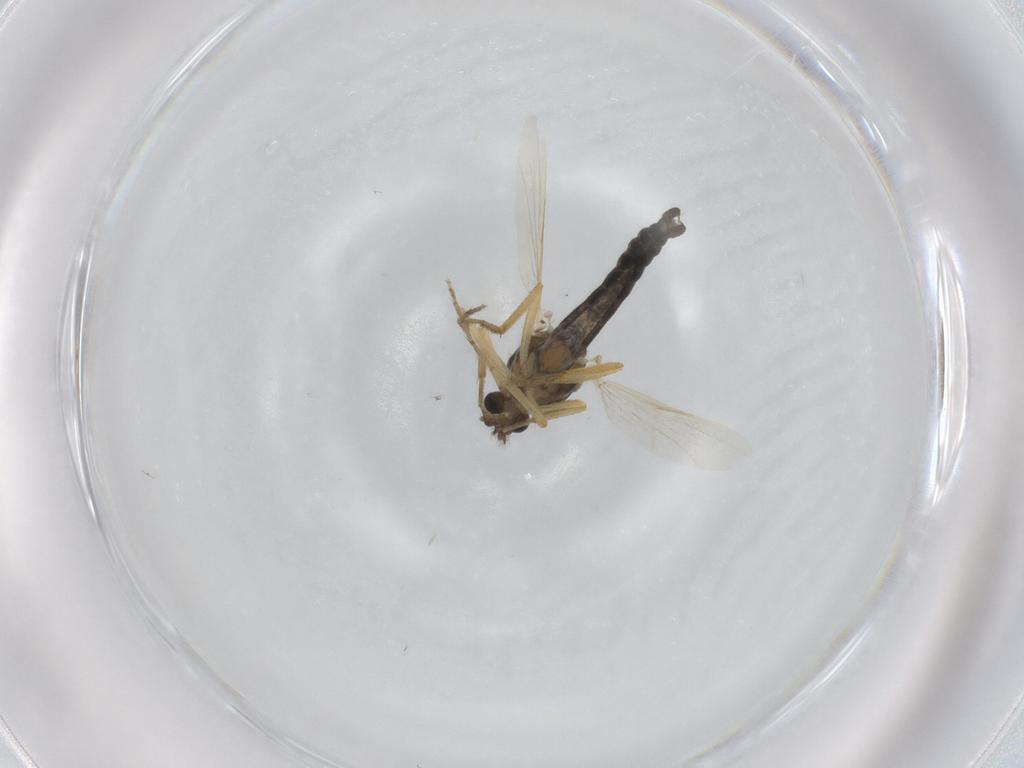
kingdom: Animalia
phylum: Arthropoda
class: Insecta
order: Diptera
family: Ceratopogonidae
